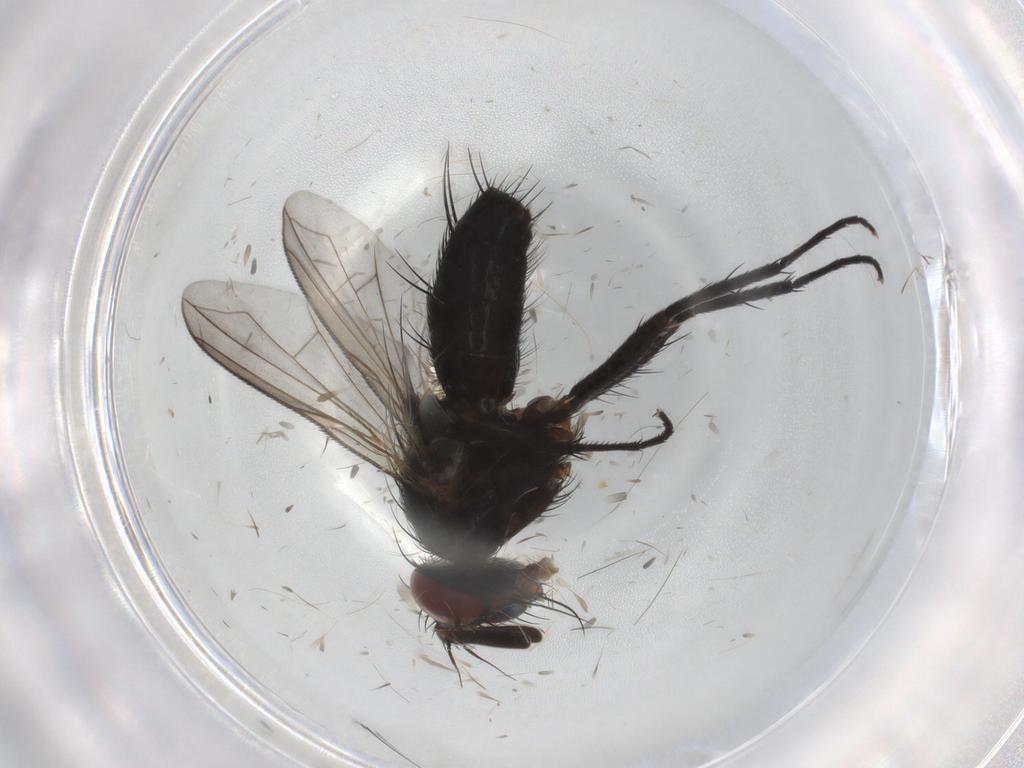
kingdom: Animalia
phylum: Arthropoda
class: Insecta
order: Diptera
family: Tachinidae
